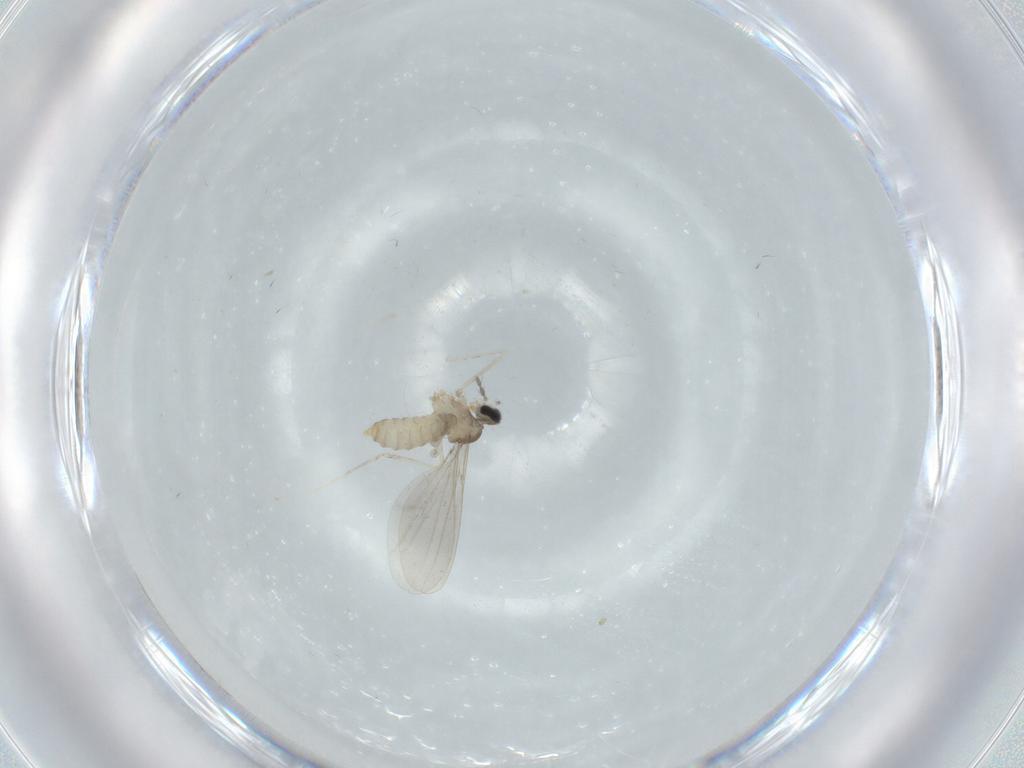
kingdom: Animalia
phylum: Arthropoda
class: Insecta
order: Diptera
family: Cecidomyiidae
